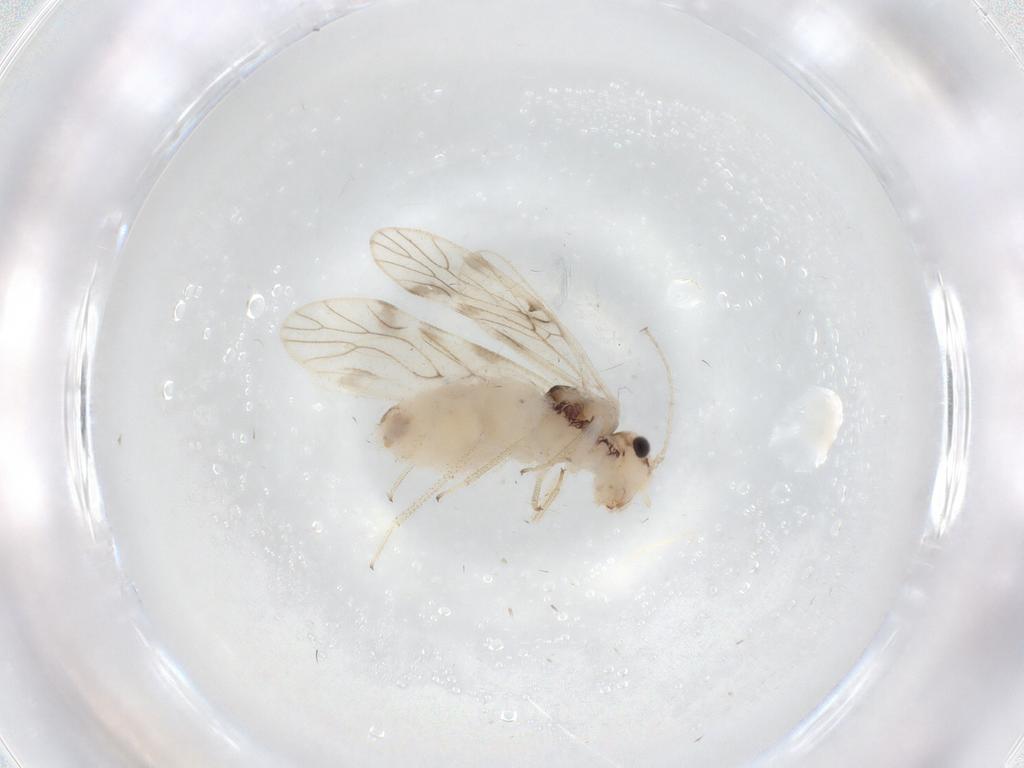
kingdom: Animalia
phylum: Arthropoda
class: Insecta
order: Psocodea
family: Caeciliusidae
